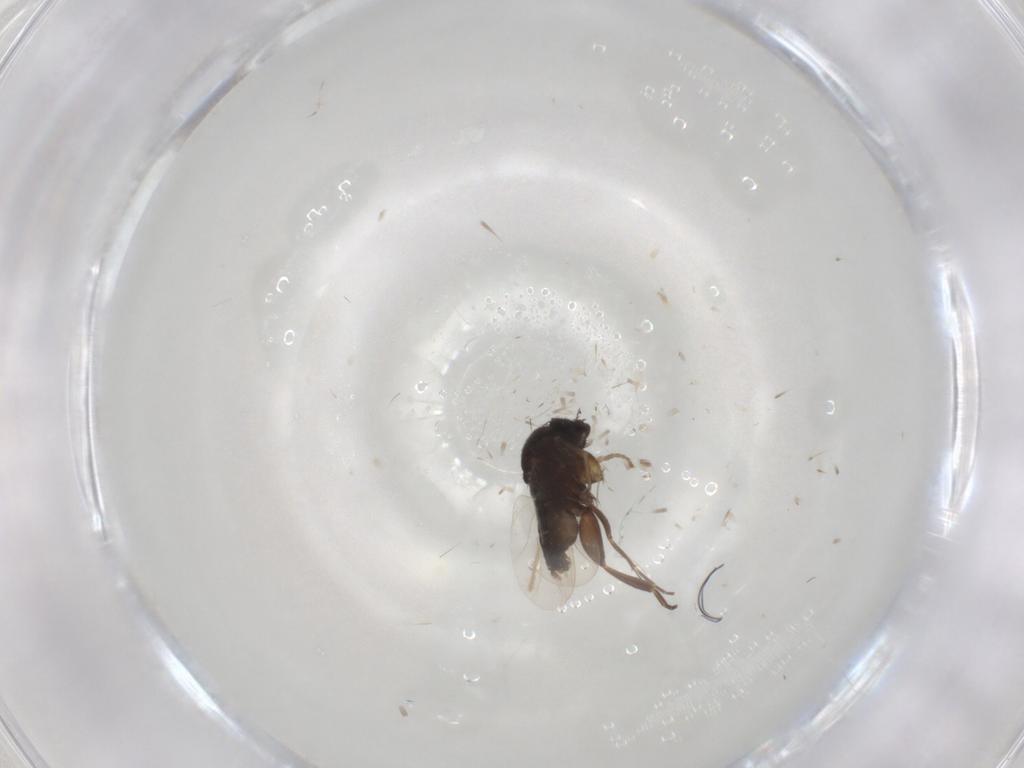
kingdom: Animalia
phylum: Arthropoda
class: Insecta
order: Diptera
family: Phoridae
